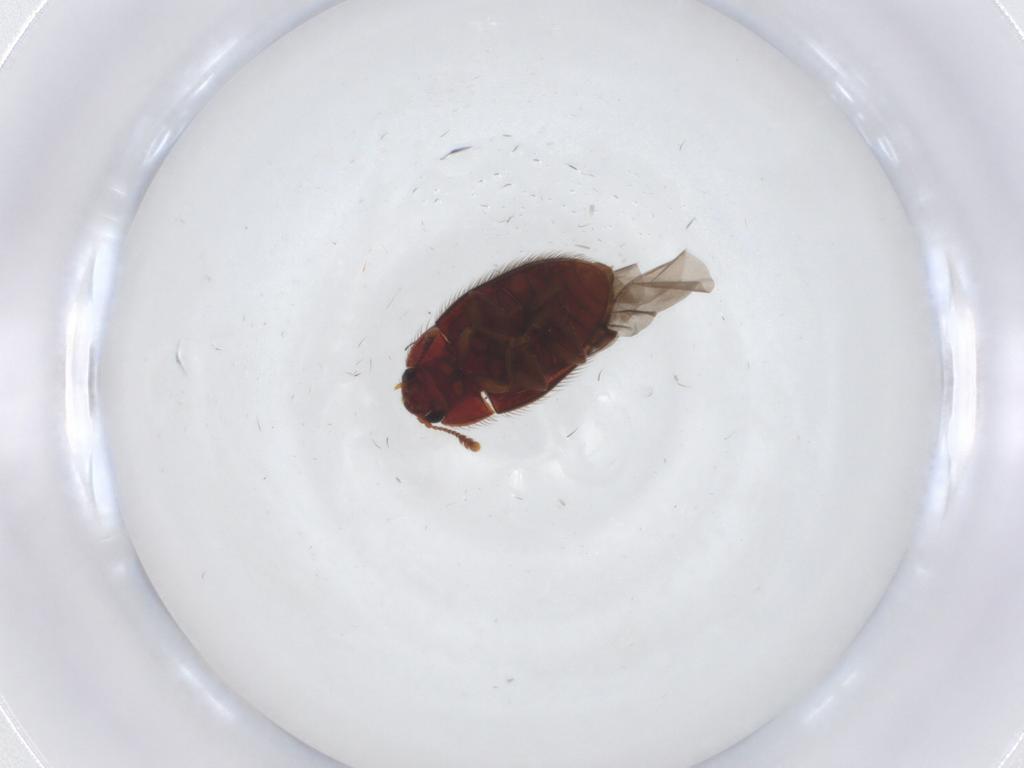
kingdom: Animalia
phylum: Arthropoda
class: Insecta
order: Coleoptera
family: Biphyllidae
